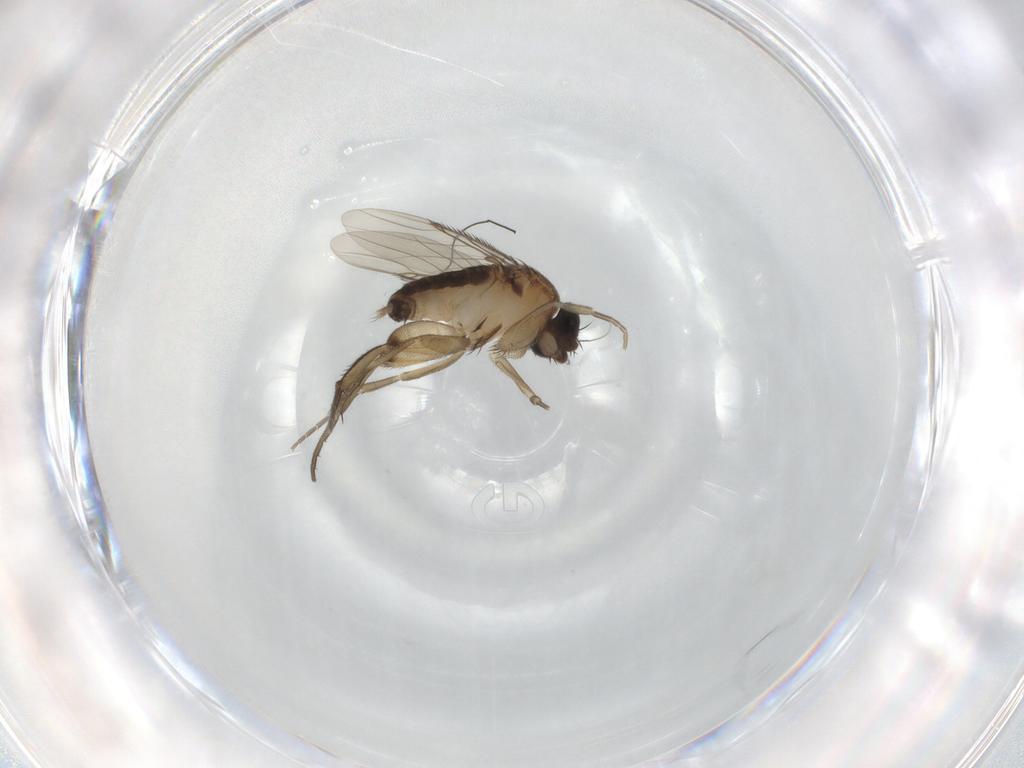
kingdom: Animalia
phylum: Arthropoda
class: Insecta
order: Diptera
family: Phoridae
